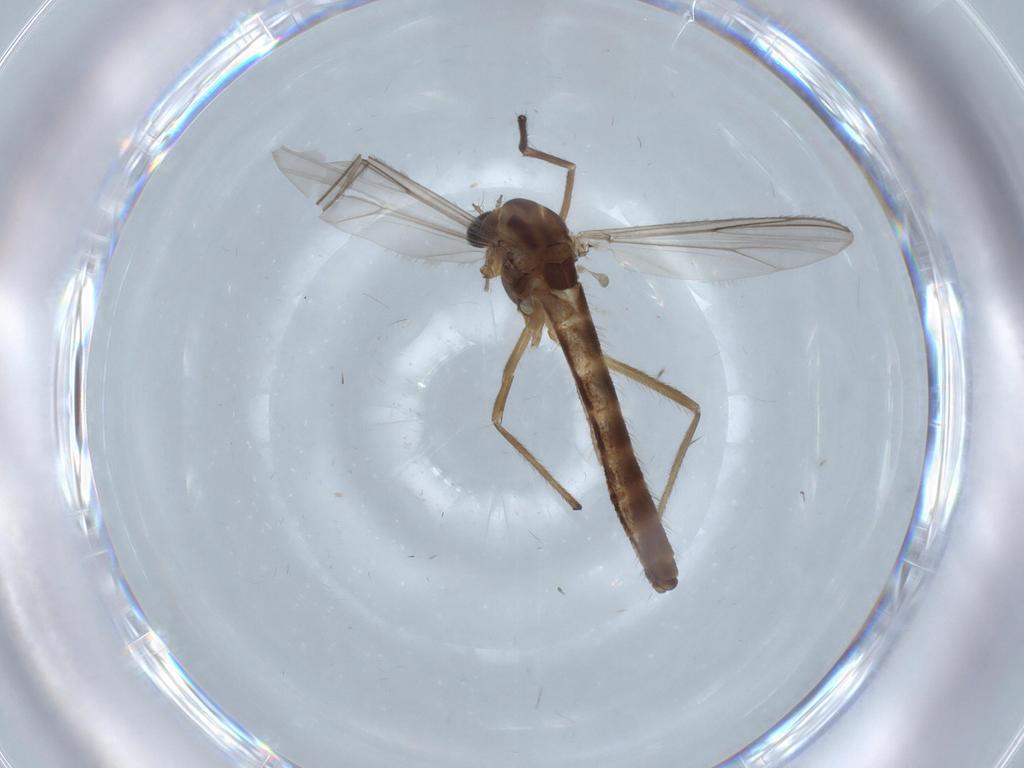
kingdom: Animalia
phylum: Arthropoda
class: Insecta
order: Diptera
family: Chironomidae
